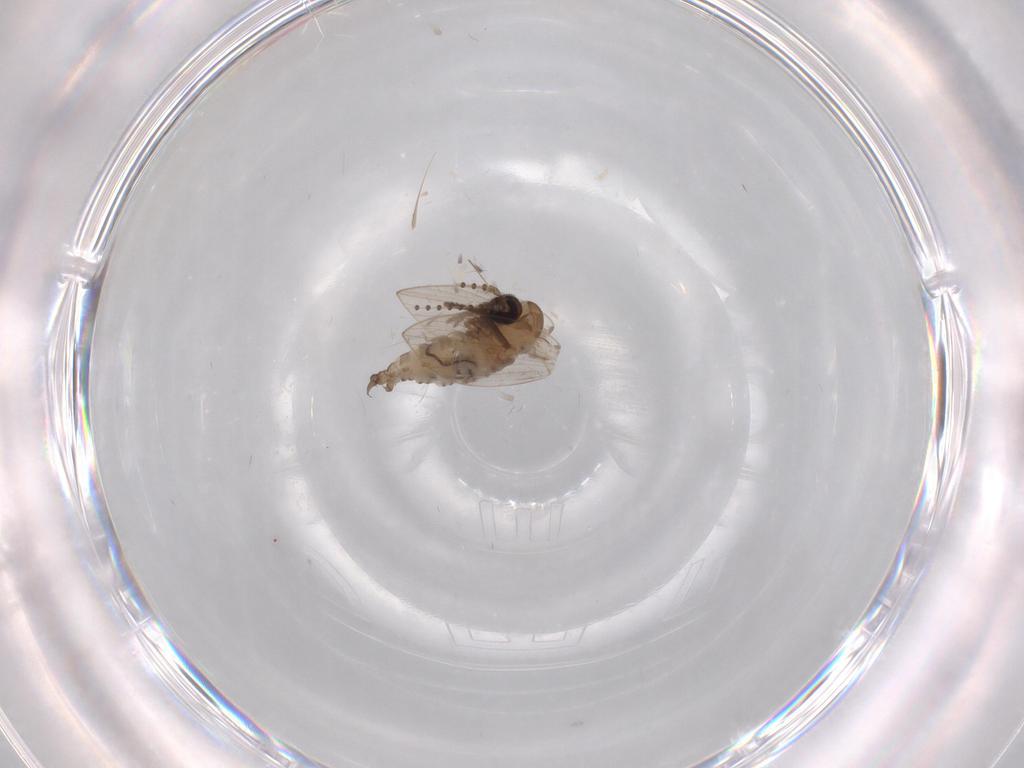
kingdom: Animalia
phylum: Arthropoda
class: Insecta
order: Diptera
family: Psychodidae
